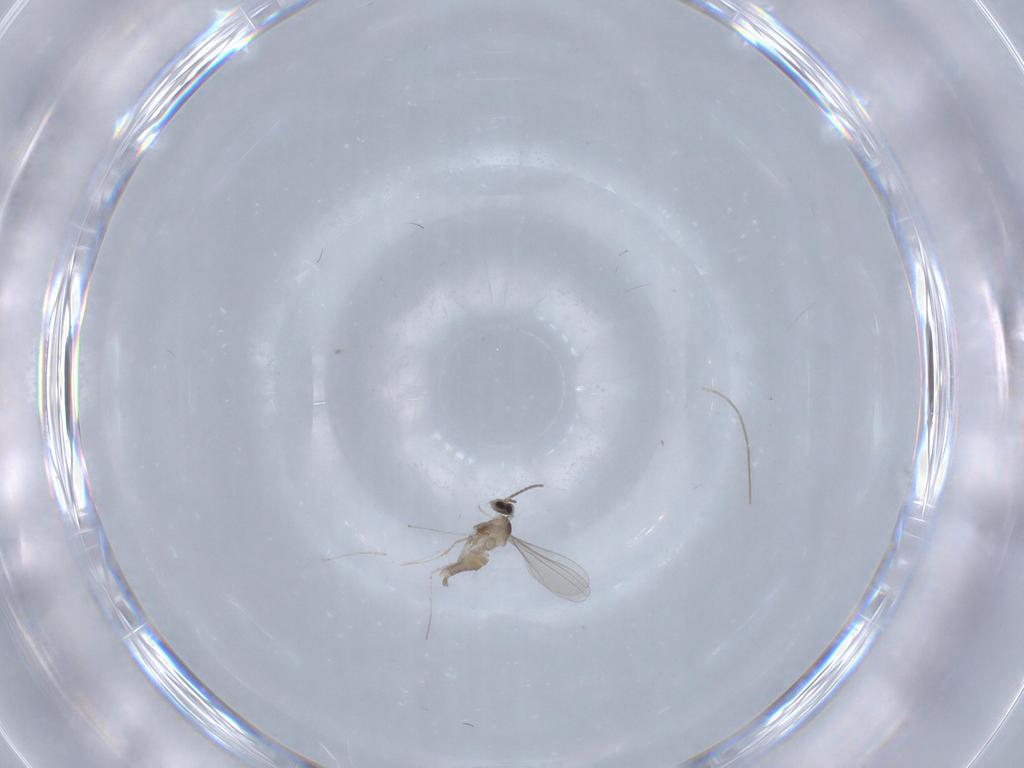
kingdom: Animalia
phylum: Arthropoda
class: Insecta
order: Diptera
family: Cecidomyiidae
